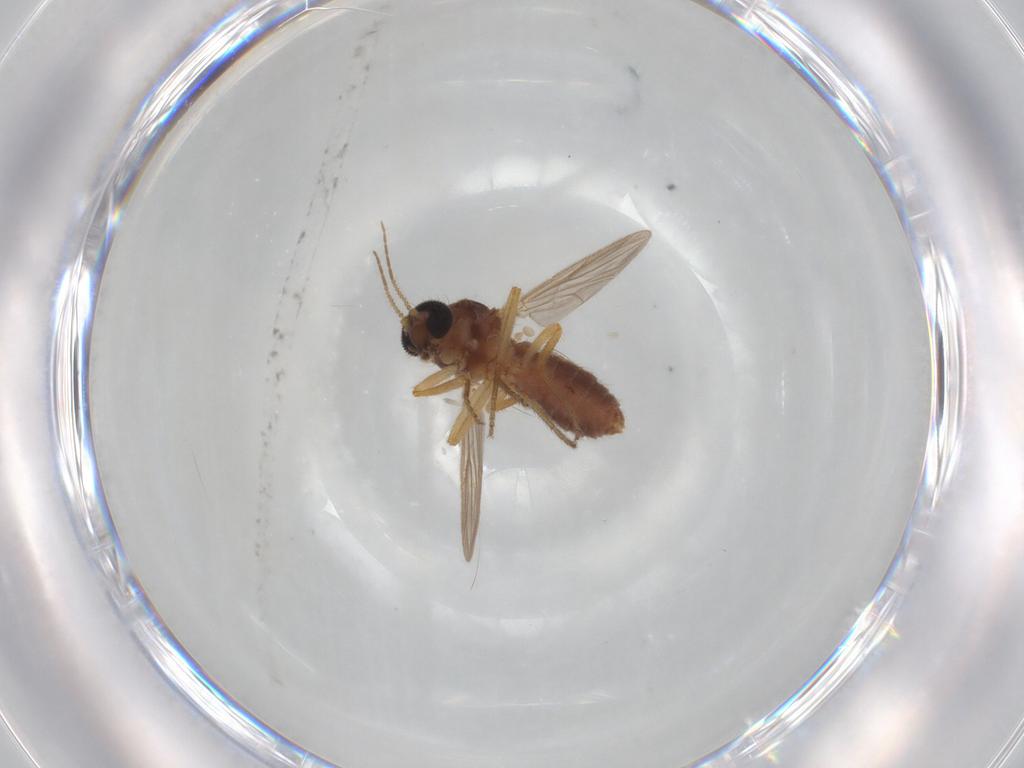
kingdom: Animalia
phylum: Arthropoda
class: Insecta
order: Diptera
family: Ceratopogonidae
